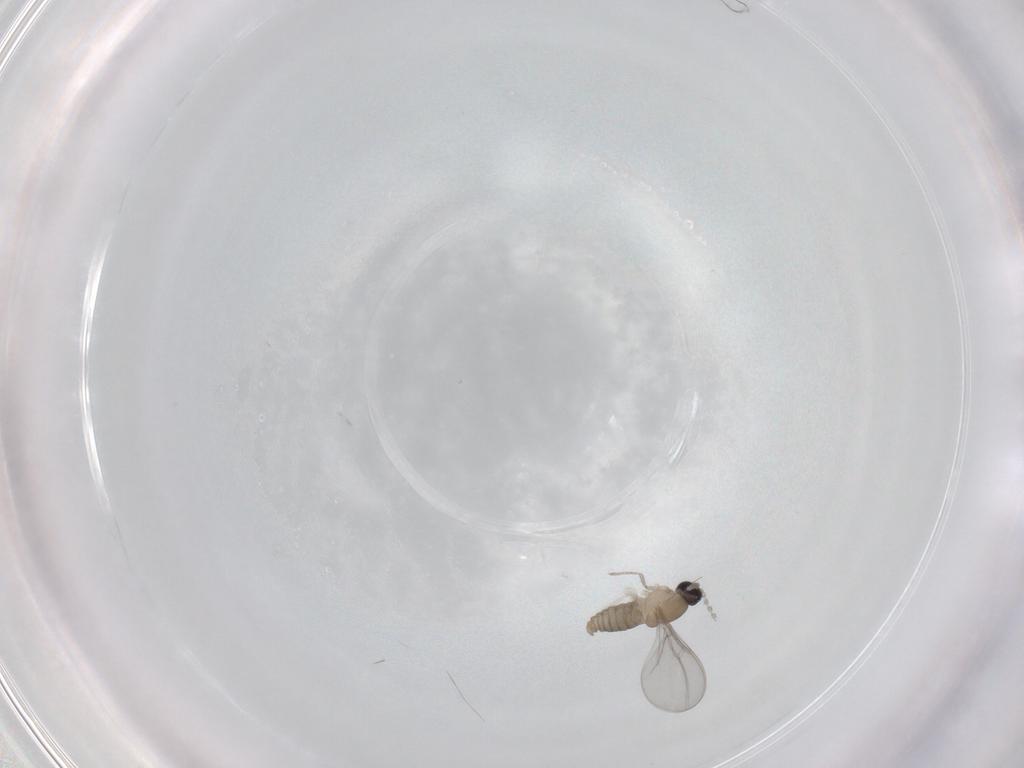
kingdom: Animalia
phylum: Arthropoda
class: Insecta
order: Diptera
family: Cecidomyiidae
